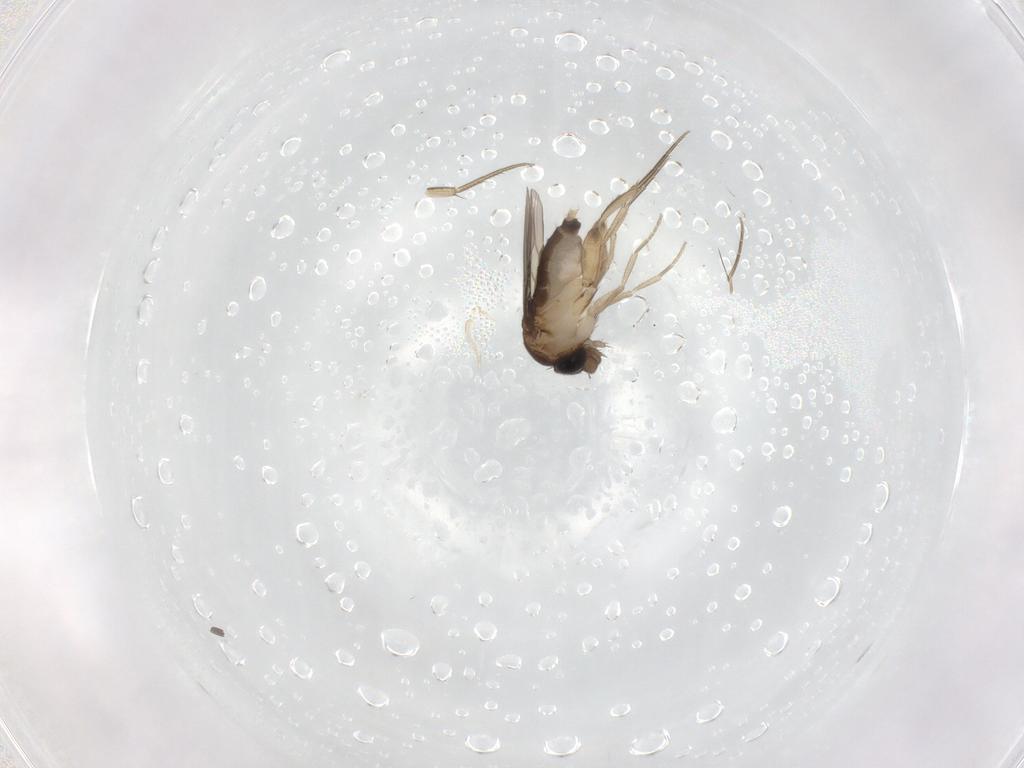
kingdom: Animalia
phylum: Arthropoda
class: Insecta
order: Diptera
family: Phoridae
